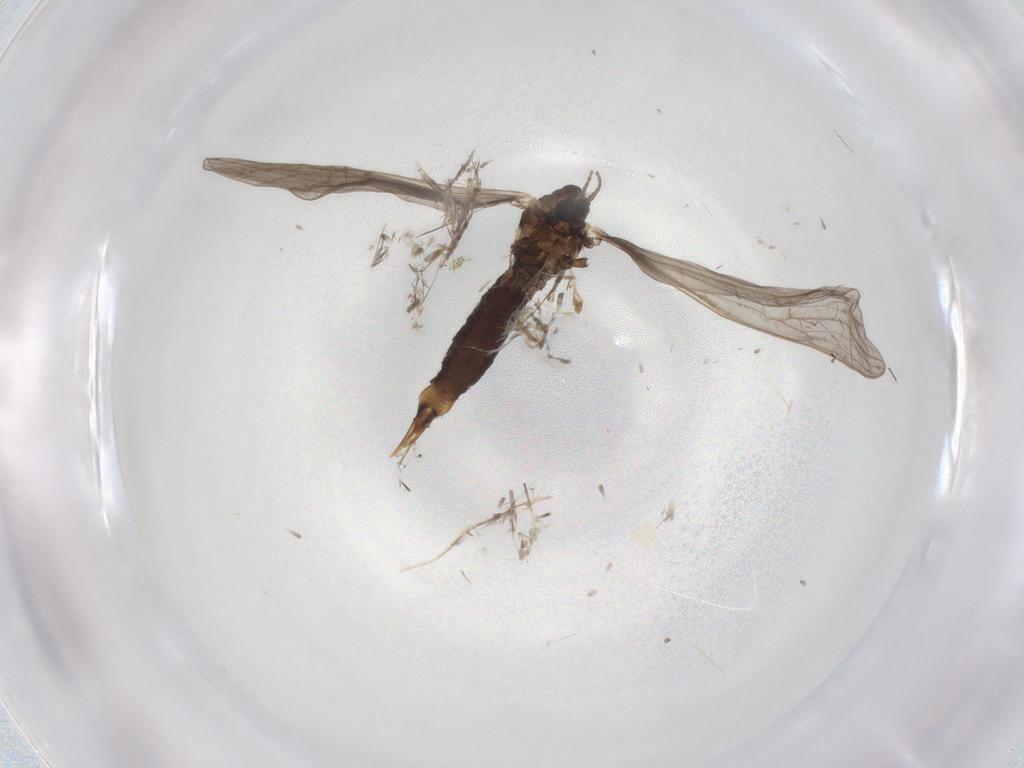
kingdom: Animalia
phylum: Arthropoda
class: Insecta
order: Diptera
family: Limoniidae
